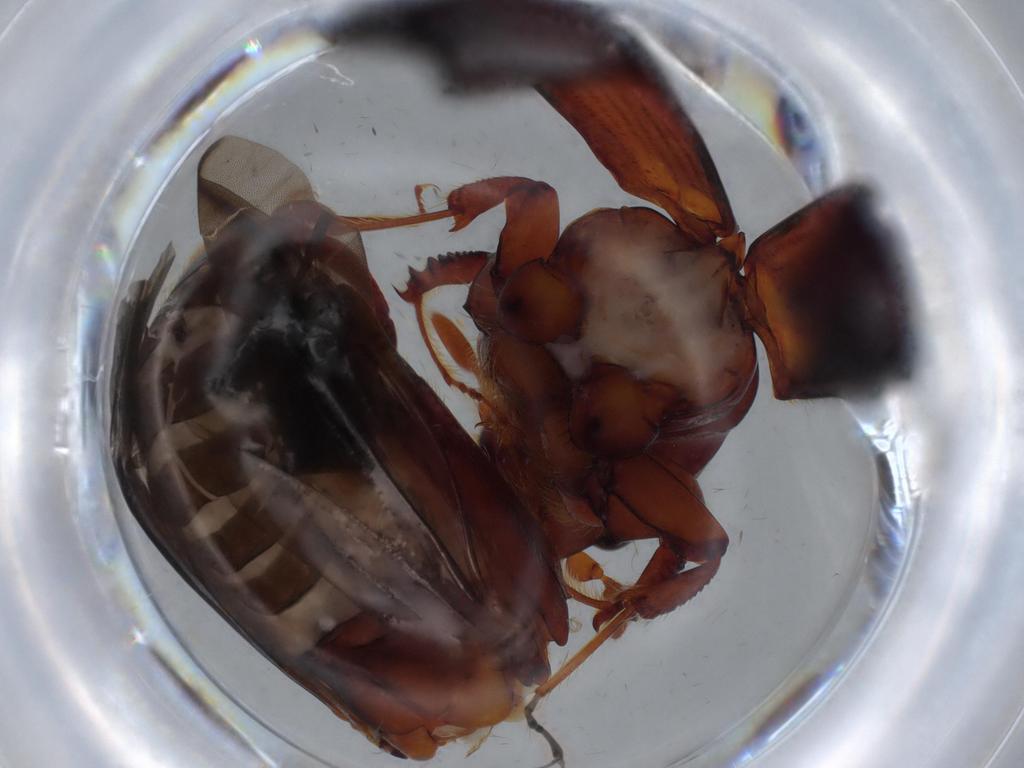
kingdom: Animalia
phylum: Arthropoda
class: Insecta
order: Coleoptera
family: Curculionidae
